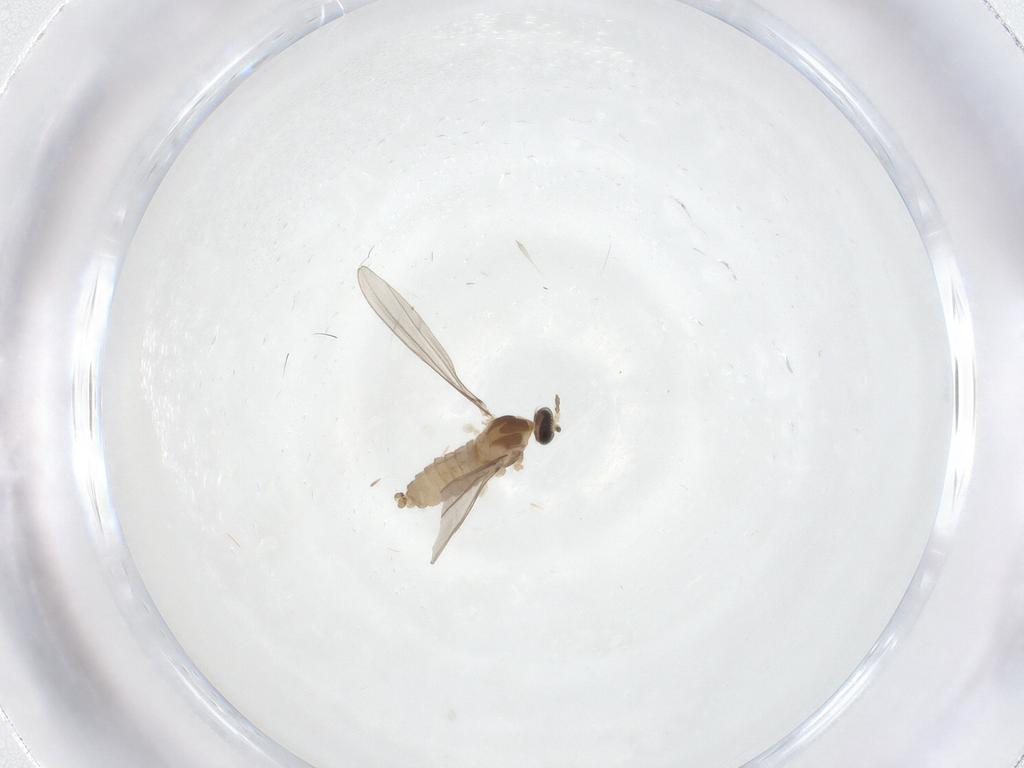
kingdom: Animalia
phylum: Arthropoda
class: Insecta
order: Diptera
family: Cecidomyiidae
